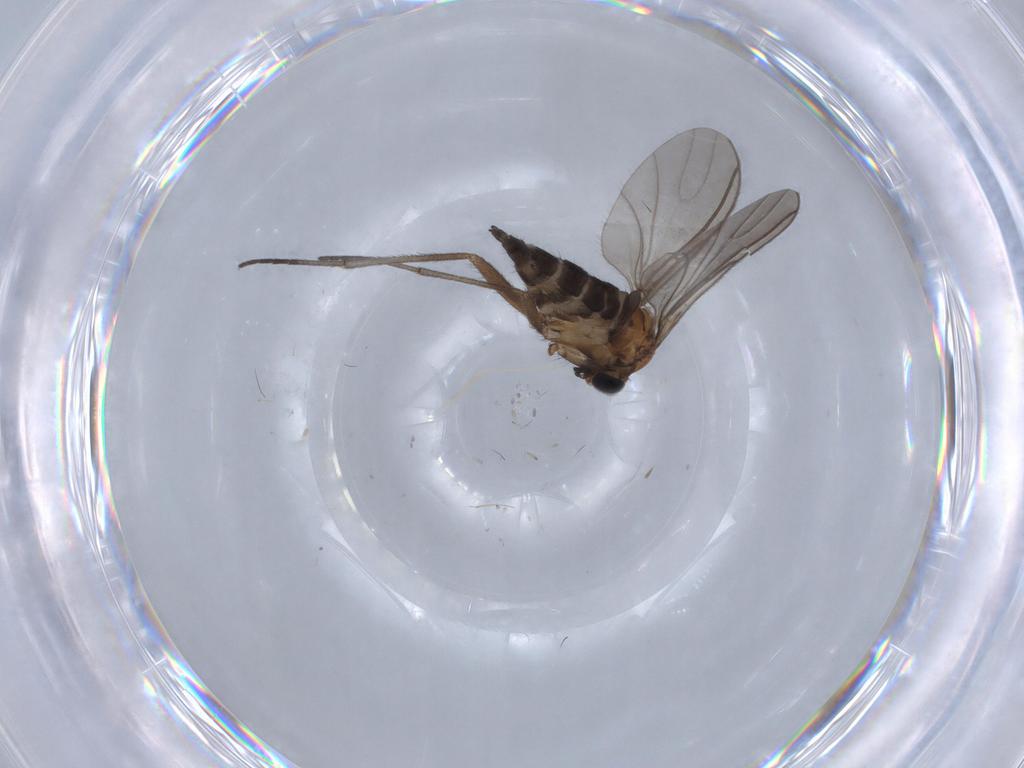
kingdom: Animalia
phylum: Arthropoda
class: Insecta
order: Diptera
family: Sciaridae
